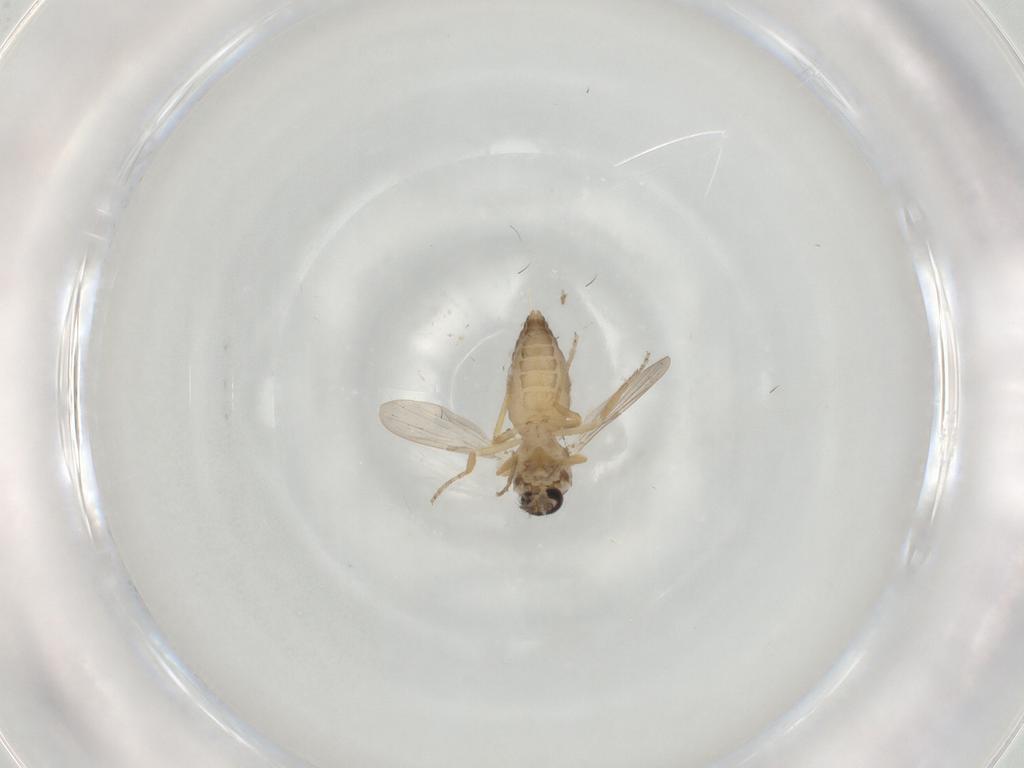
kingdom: Animalia
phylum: Arthropoda
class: Insecta
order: Diptera
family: Ceratopogonidae
